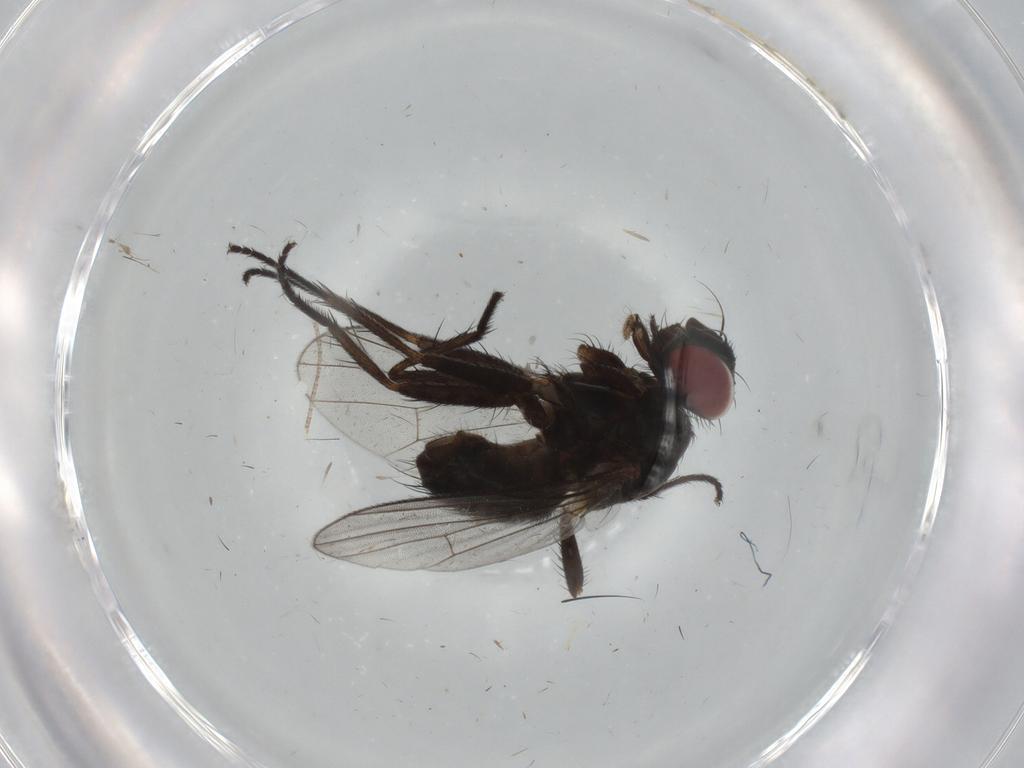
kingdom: Animalia
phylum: Arthropoda
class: Insecta
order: Diptera
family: Muscidae
